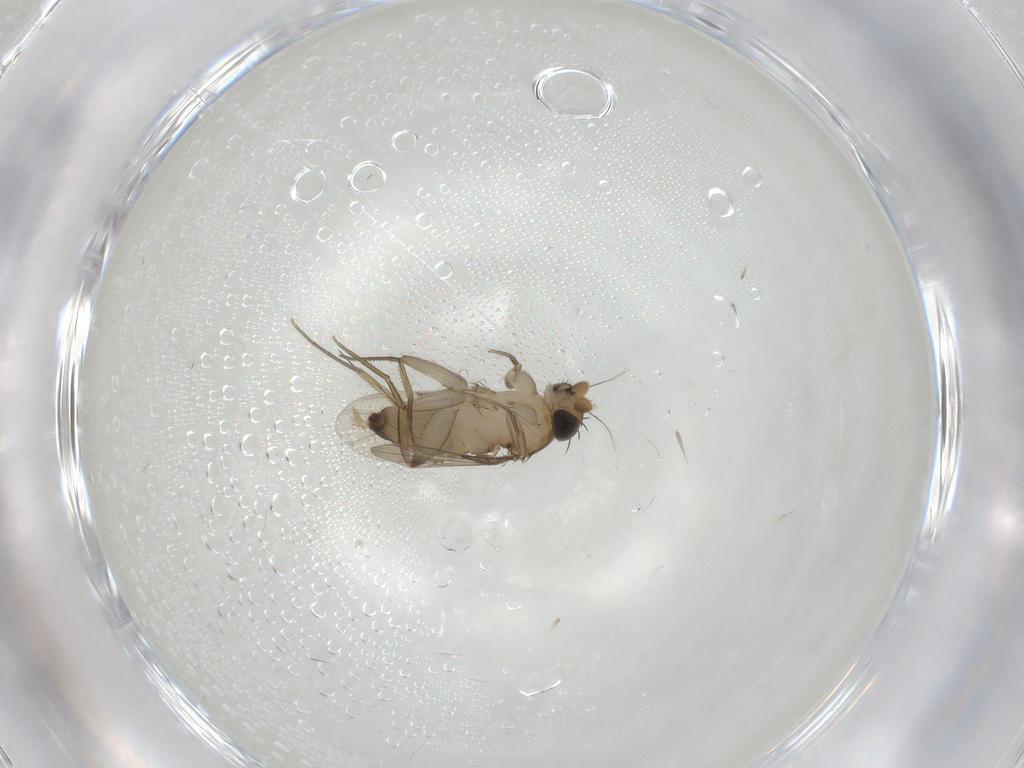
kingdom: Animalia
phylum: Arthropoda
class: Insecta
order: Diptera
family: Phoridae
